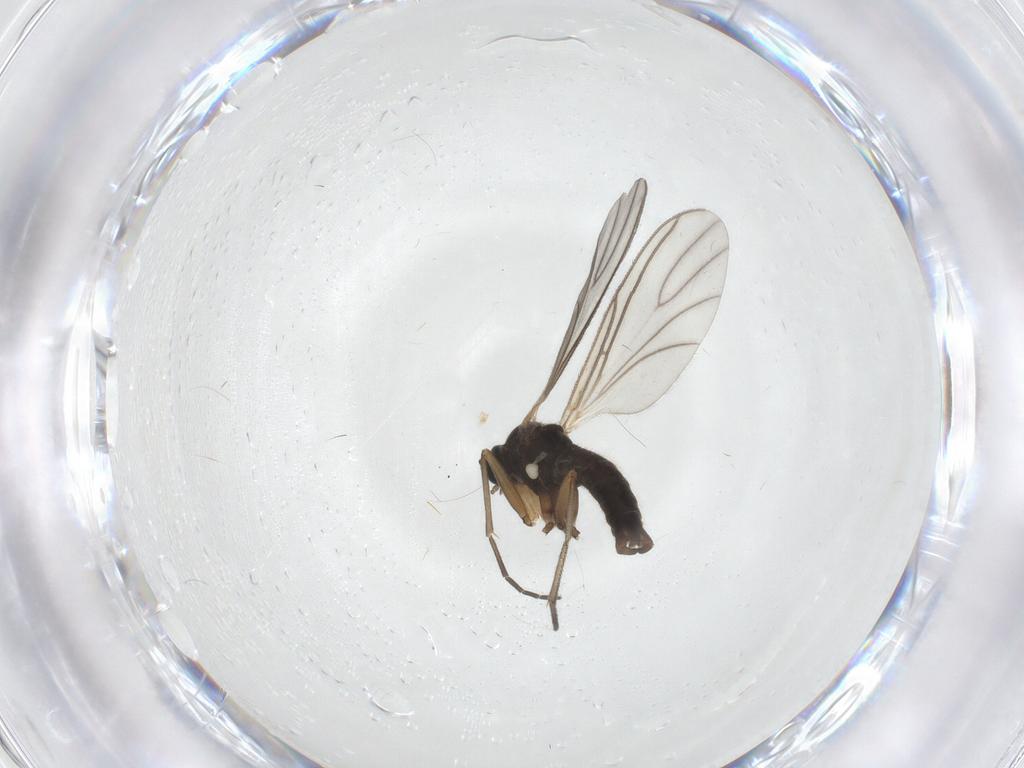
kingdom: Animalia
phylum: Arthropoda
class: Insecta
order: Diptera
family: Sciaridae
